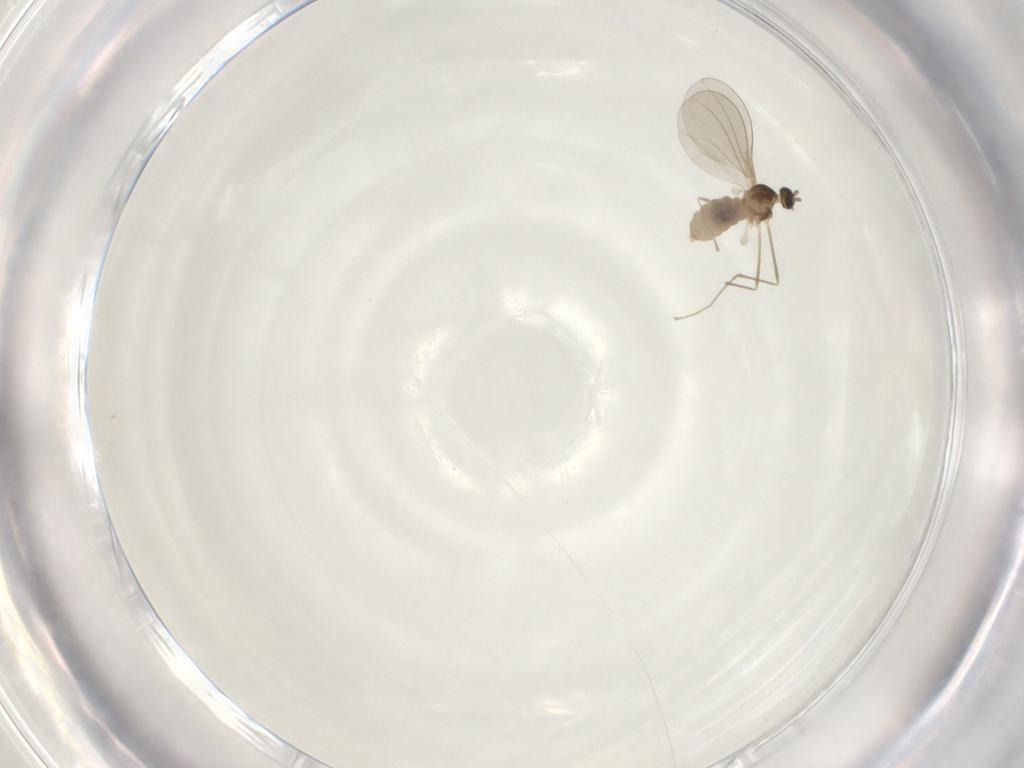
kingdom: Animalia
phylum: Arthropoda
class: Insecta
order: Diptera
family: Cecidomyiidae
